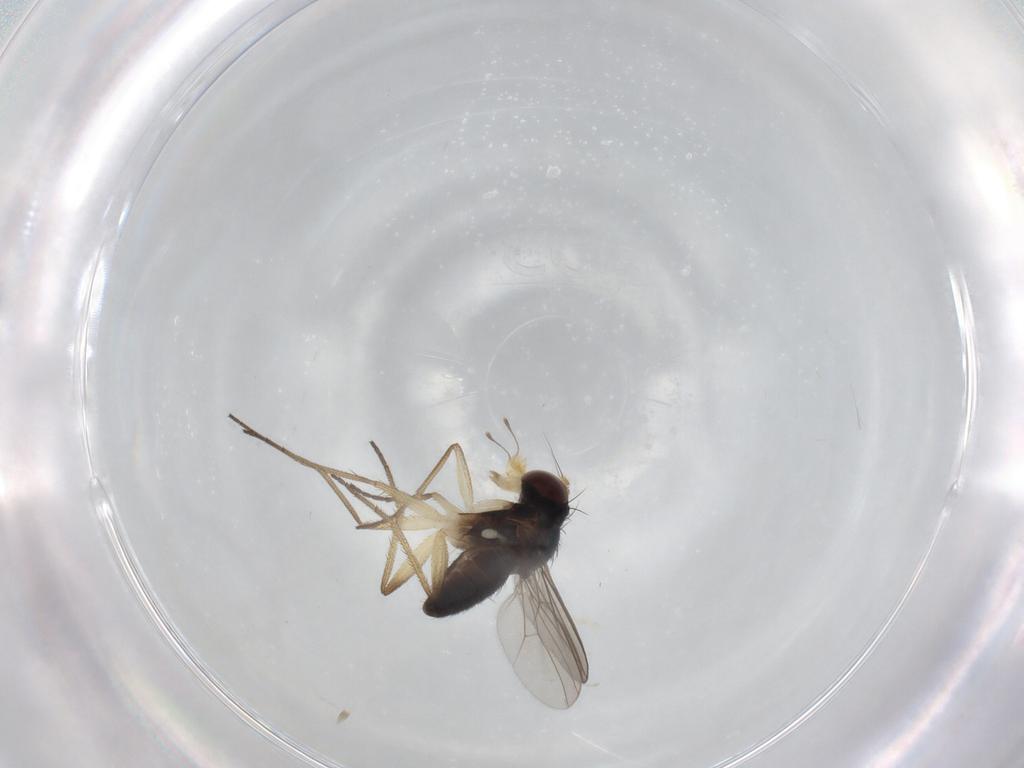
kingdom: Animalia
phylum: Arthropoda
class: Insecta
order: Diptera
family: Dolichopodidae
